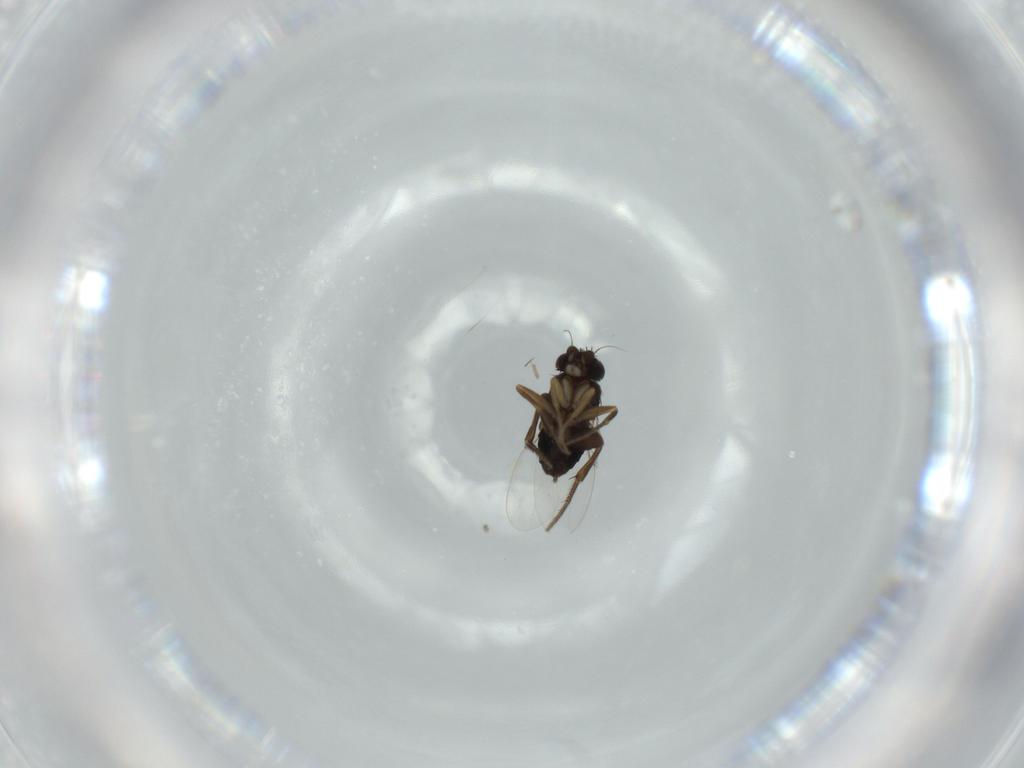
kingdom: Animalia
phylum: Arthropoda
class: Insecta
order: Diptera
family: Phoridae
